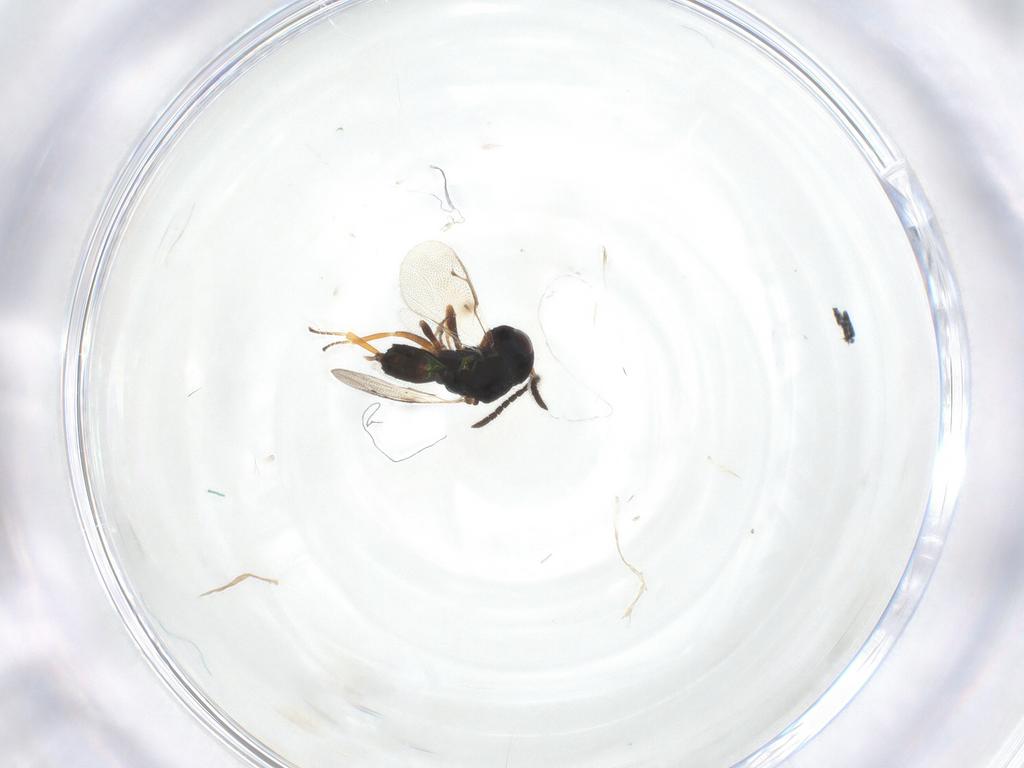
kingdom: Animalia
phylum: Arthropoda
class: Insecta
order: Hymenoptera
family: Pteromalidae
